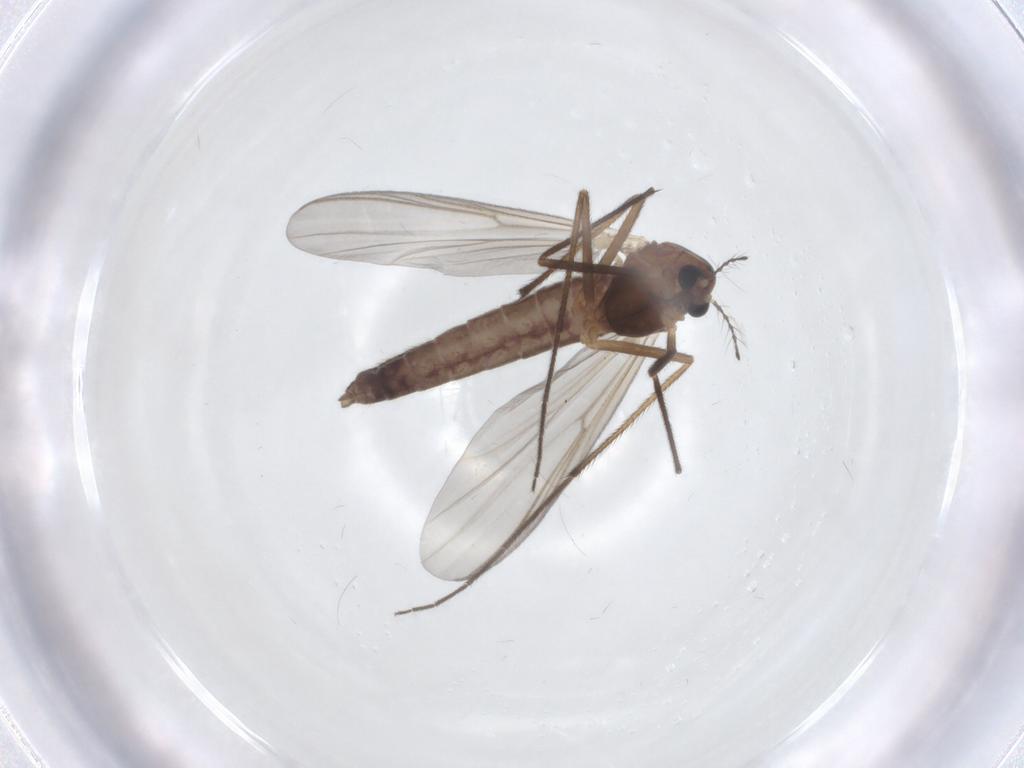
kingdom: Animalia
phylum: Arthropoda
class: Insecta
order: Diptera
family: Chironomidae
